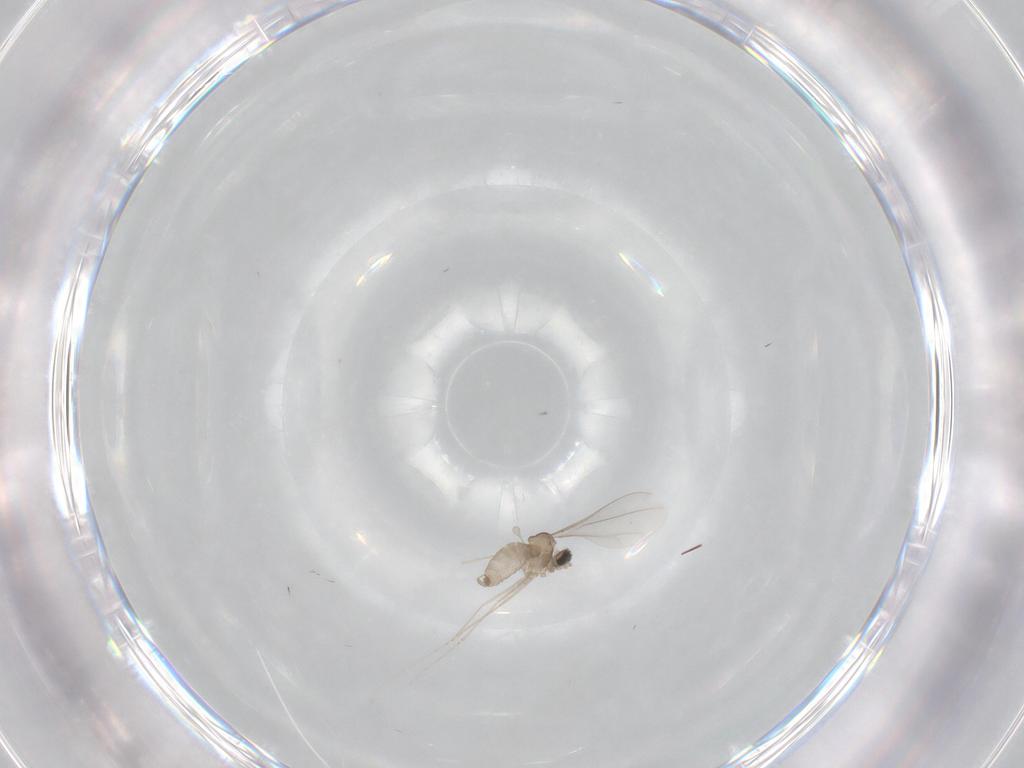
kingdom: Animalia
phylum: Arthropoda
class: Insecta
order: Diptera
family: Cecidomyiidae
